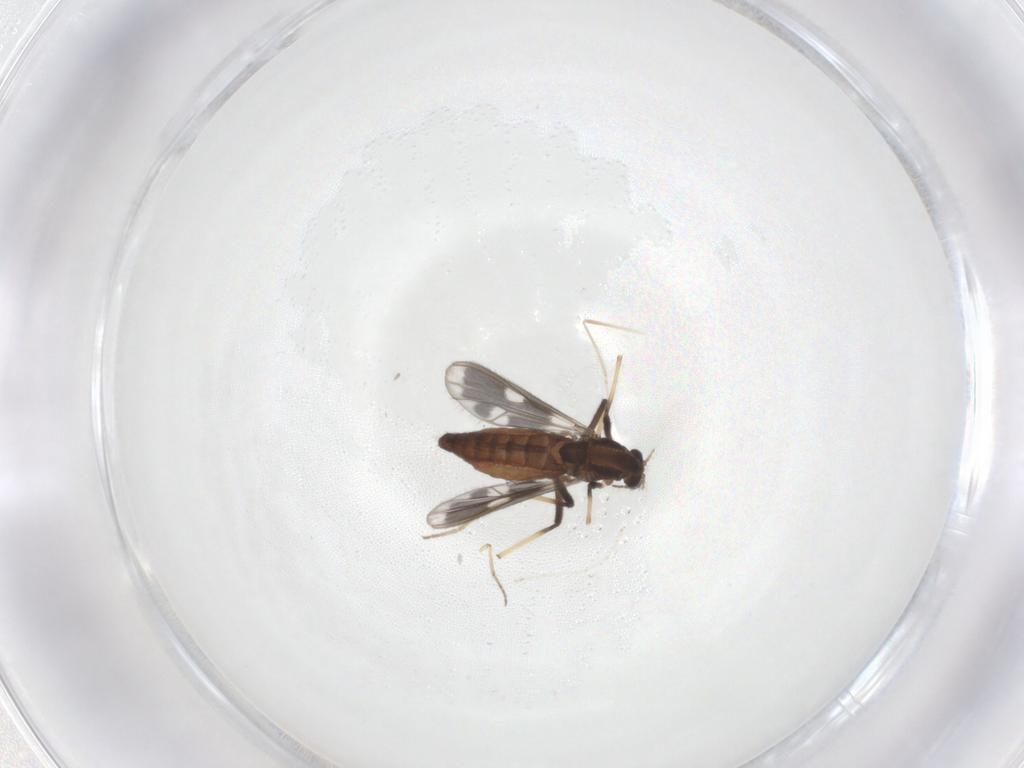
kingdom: Animalia
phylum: Arthropoda
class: Insecta
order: Diptera
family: Chironomidae
